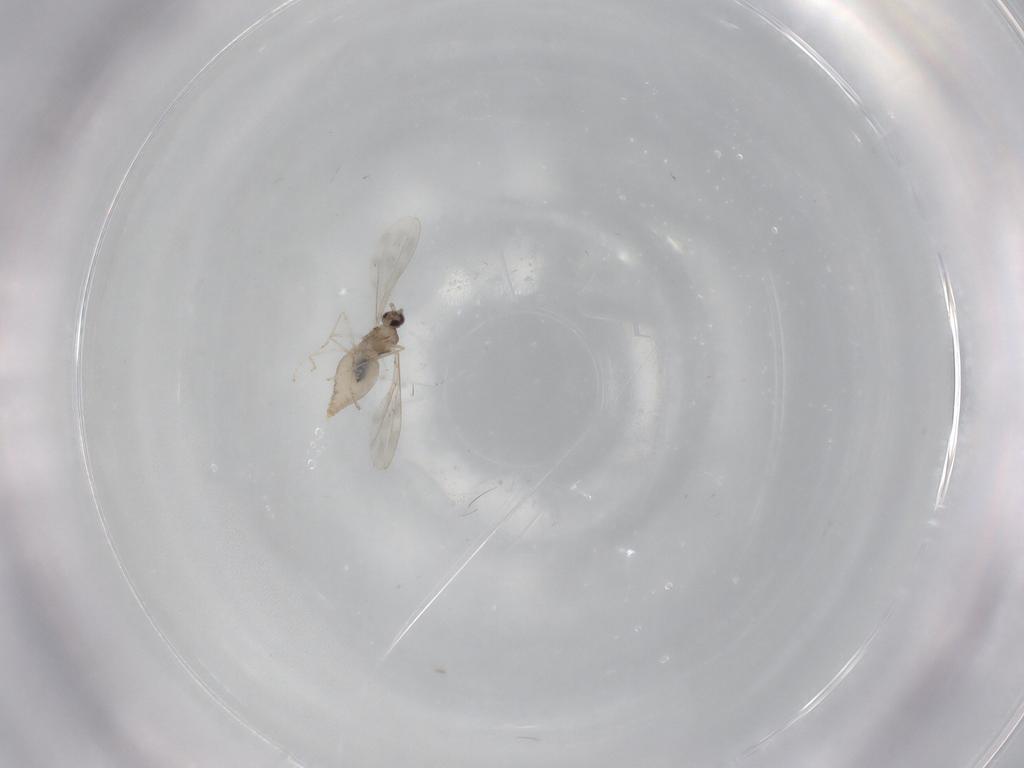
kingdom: Animalia
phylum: Arthropoda
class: Insecta
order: Diptera
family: Cecidomyiidae
